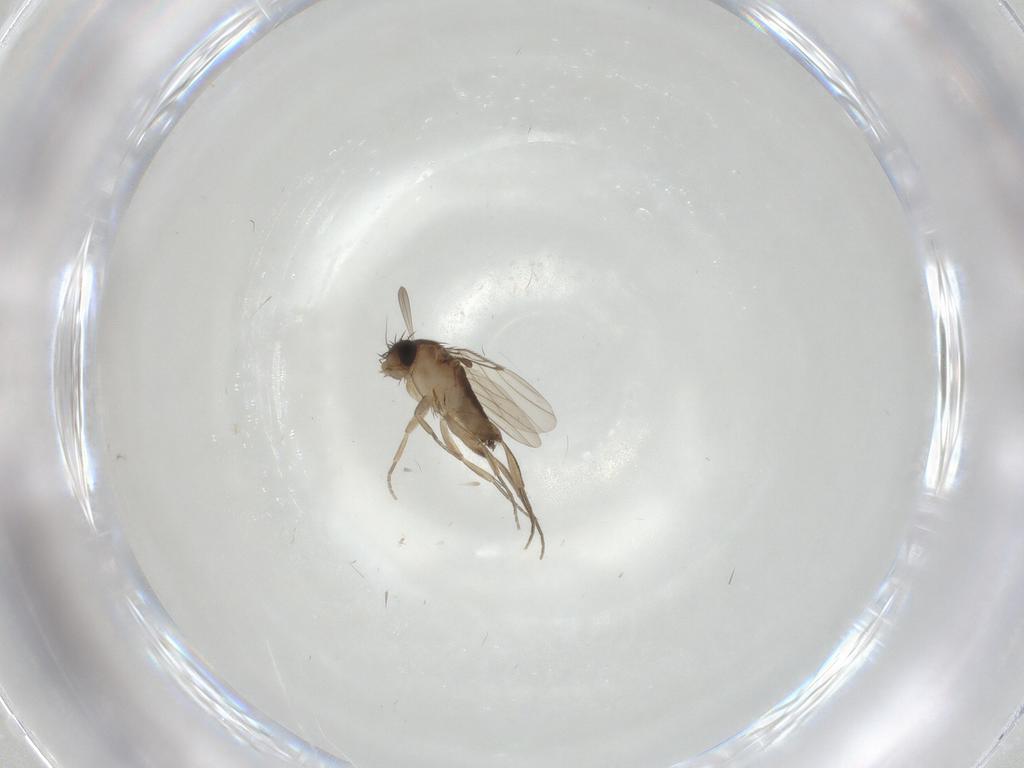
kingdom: Animalia
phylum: Arthropoda
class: Insecta
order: Diptera
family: Phoridae
